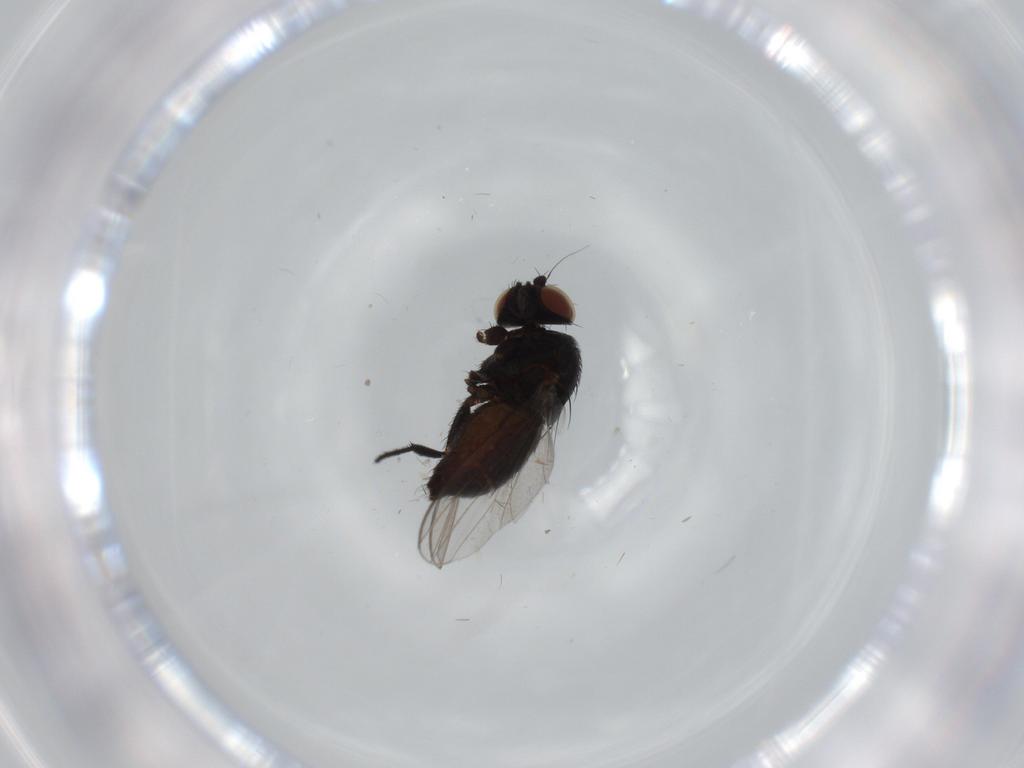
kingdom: Animalia
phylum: Arthropoda
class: Insecta
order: Diptera
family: Milichiidae
